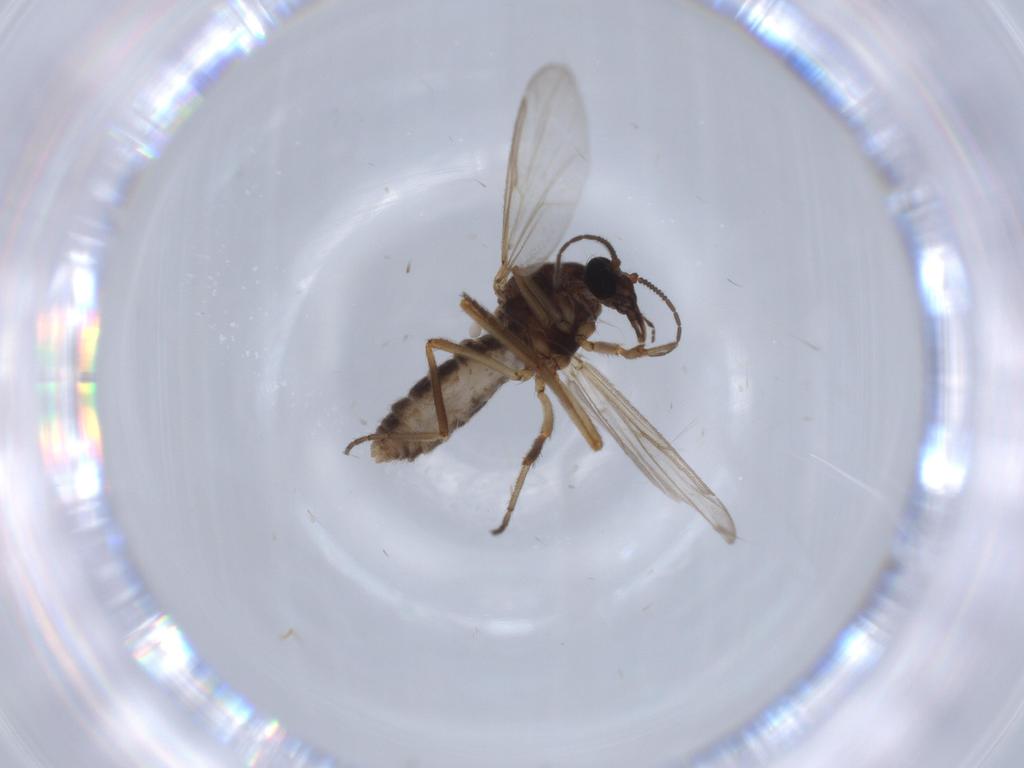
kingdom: Animalia
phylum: Arthropoda
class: Insecta
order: Diptera
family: Ceratopogonidae
